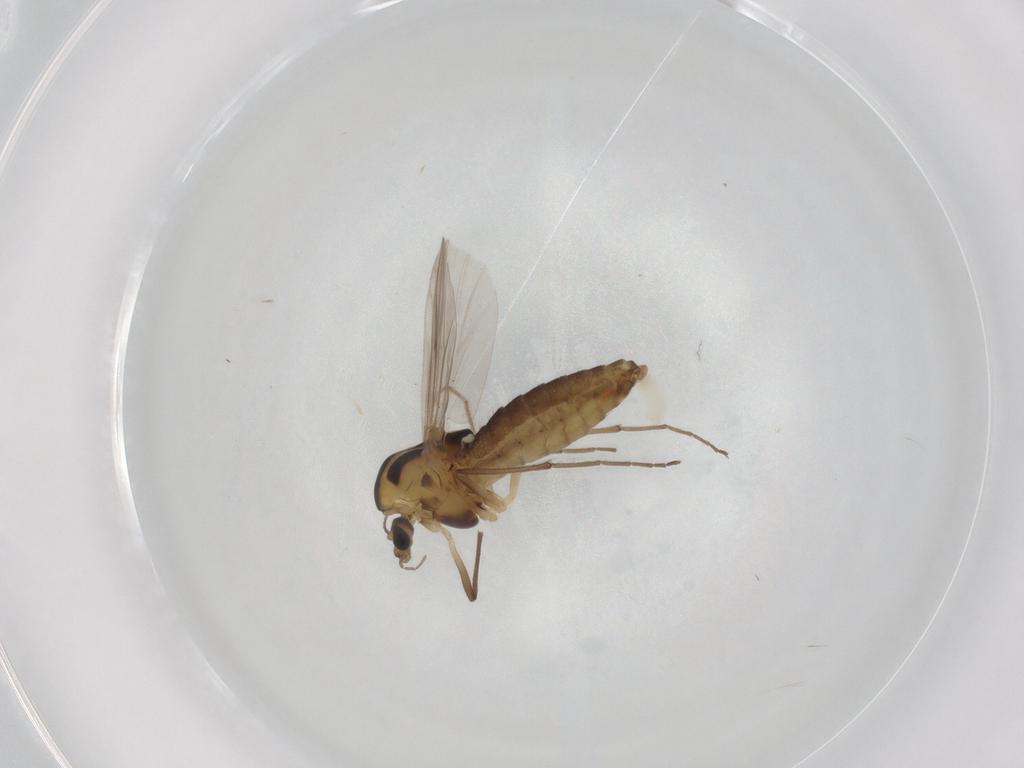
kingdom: Animalia
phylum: Arthropoda
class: Insecta
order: Diptera
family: Chironomidae
